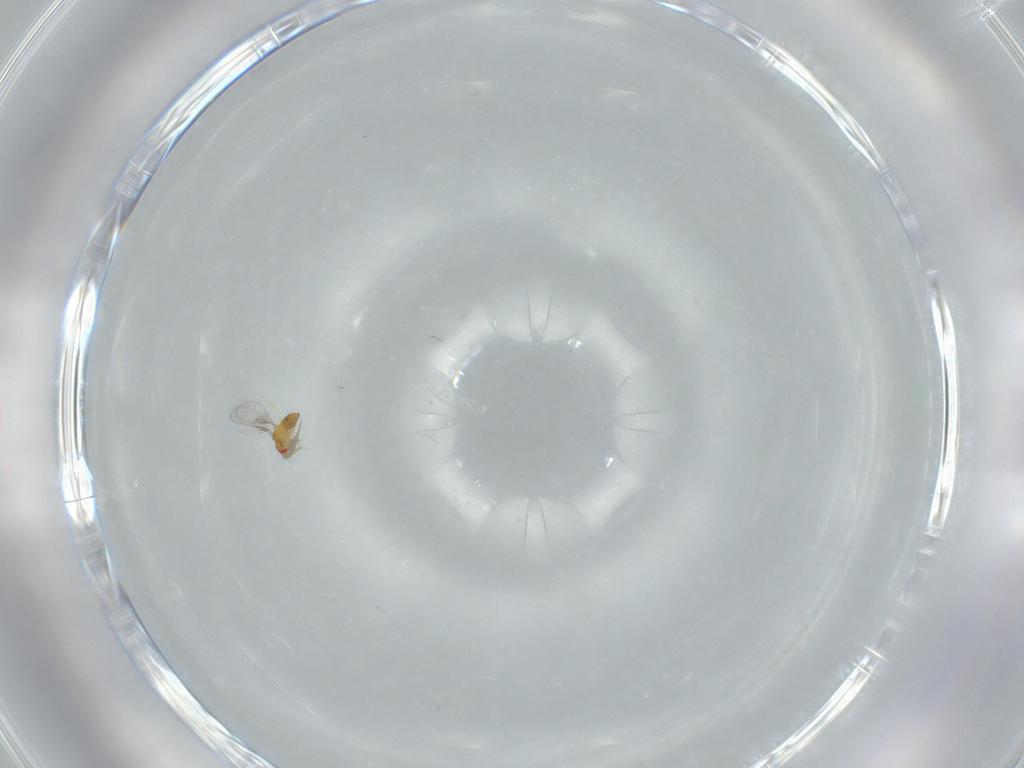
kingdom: Animalia
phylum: Arthropoda
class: Insecta
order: Hymenoptera
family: Trichogrammatidae
